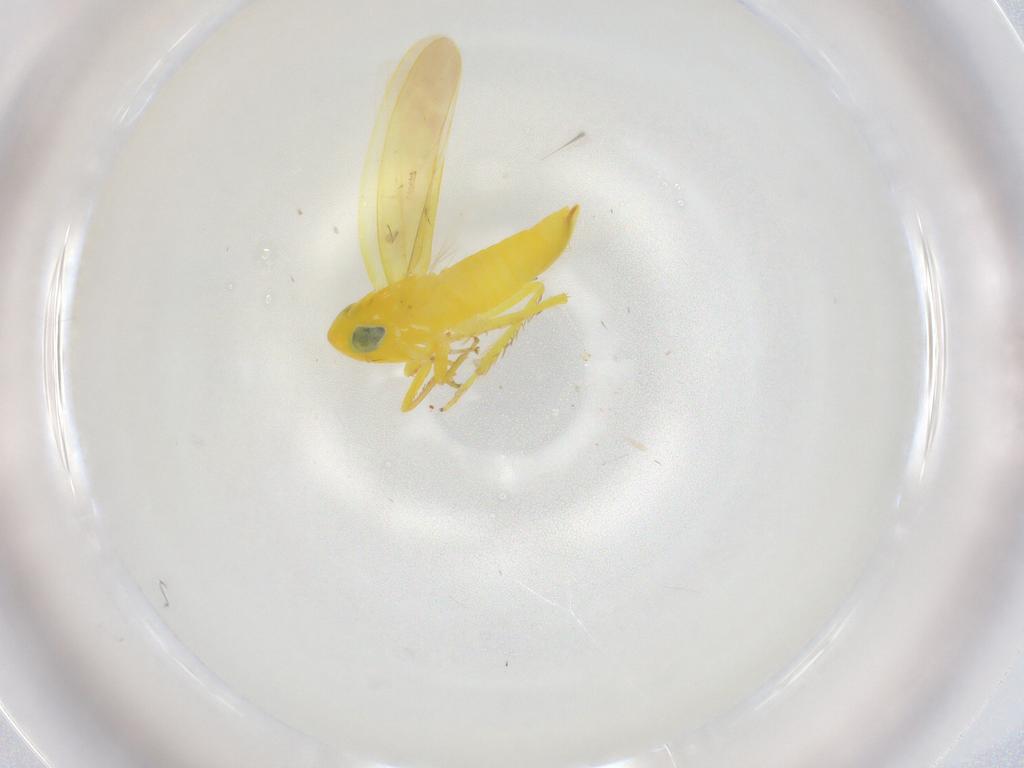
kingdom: Animalia
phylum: Arthropoda
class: Insecta
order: Hemiptera
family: Cicadellidae
